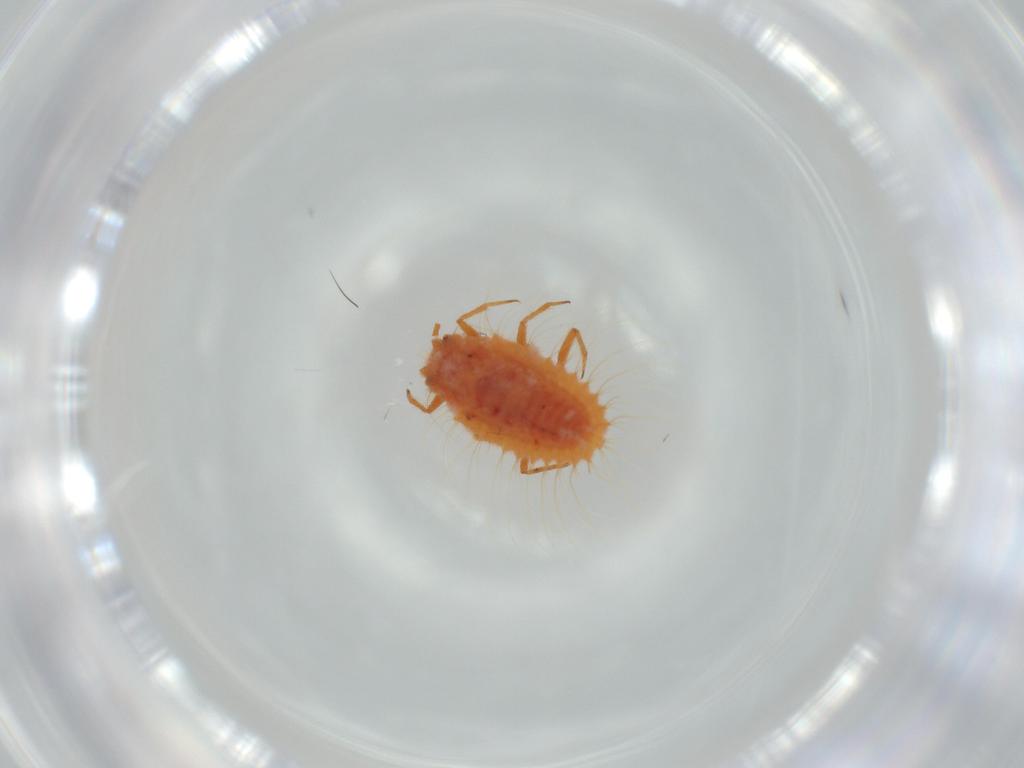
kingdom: Animalia
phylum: Arthropoda
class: Insecta
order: Hemiptera
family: Coccoidea_incertae_sedis
